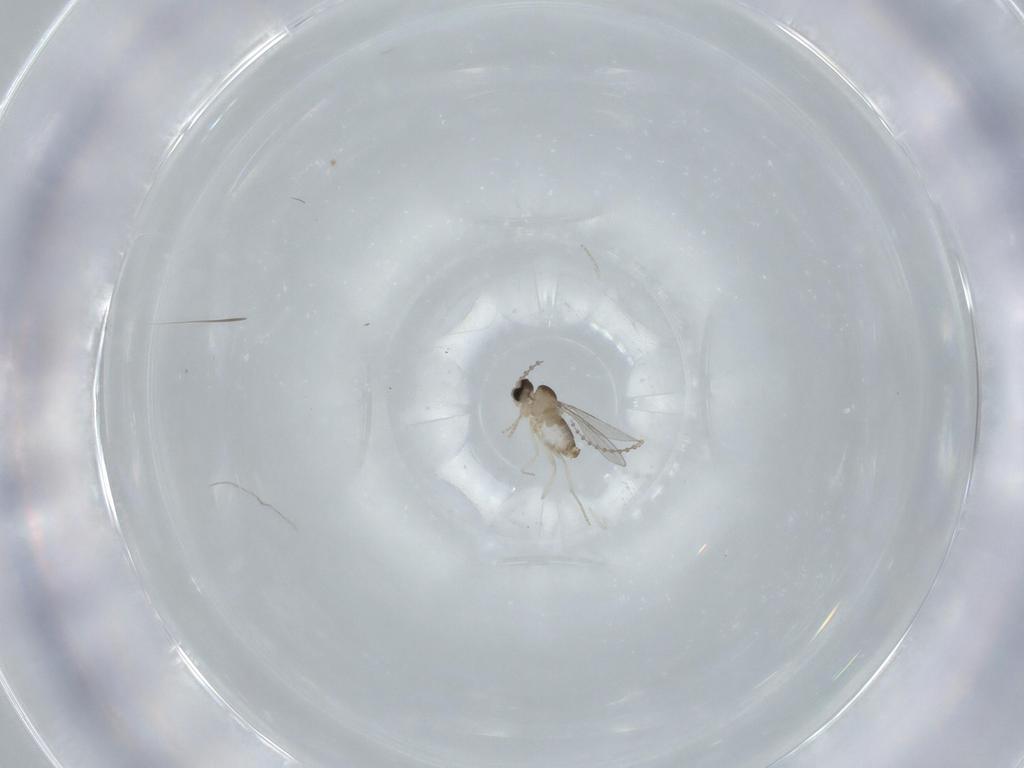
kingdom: Animalia
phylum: Arthropoda
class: Insecta
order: Diptera
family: Cecidomyiidae
